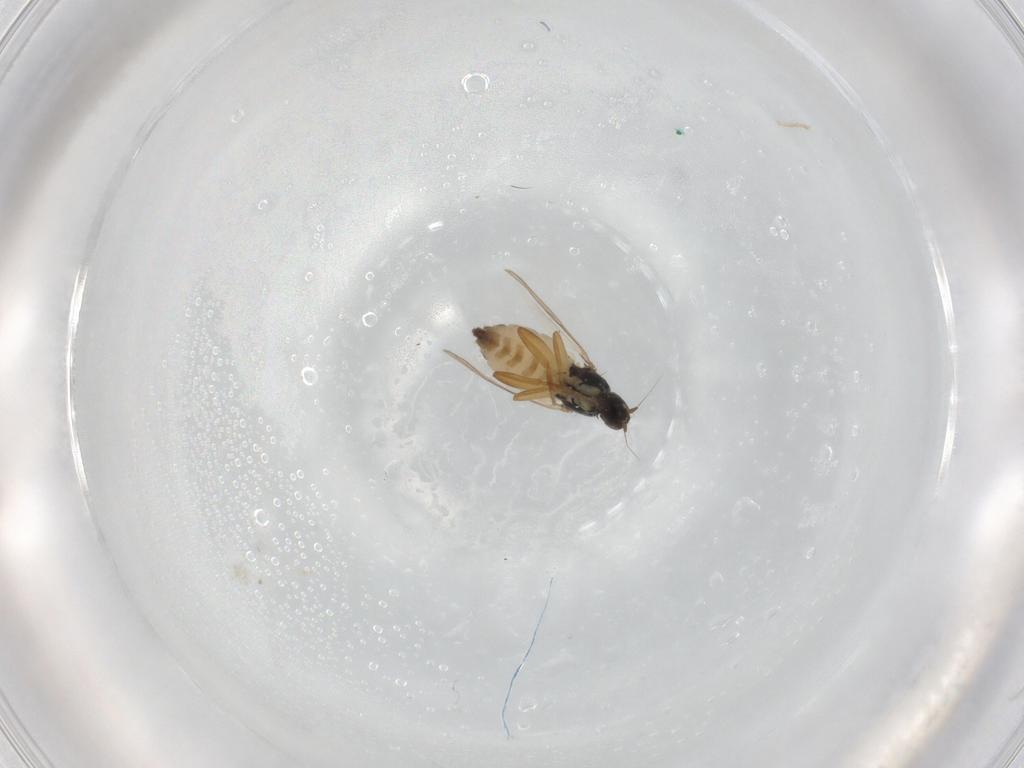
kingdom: Animalia
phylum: Arthropoda
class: Insecta
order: Diptera
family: Hybotidae
